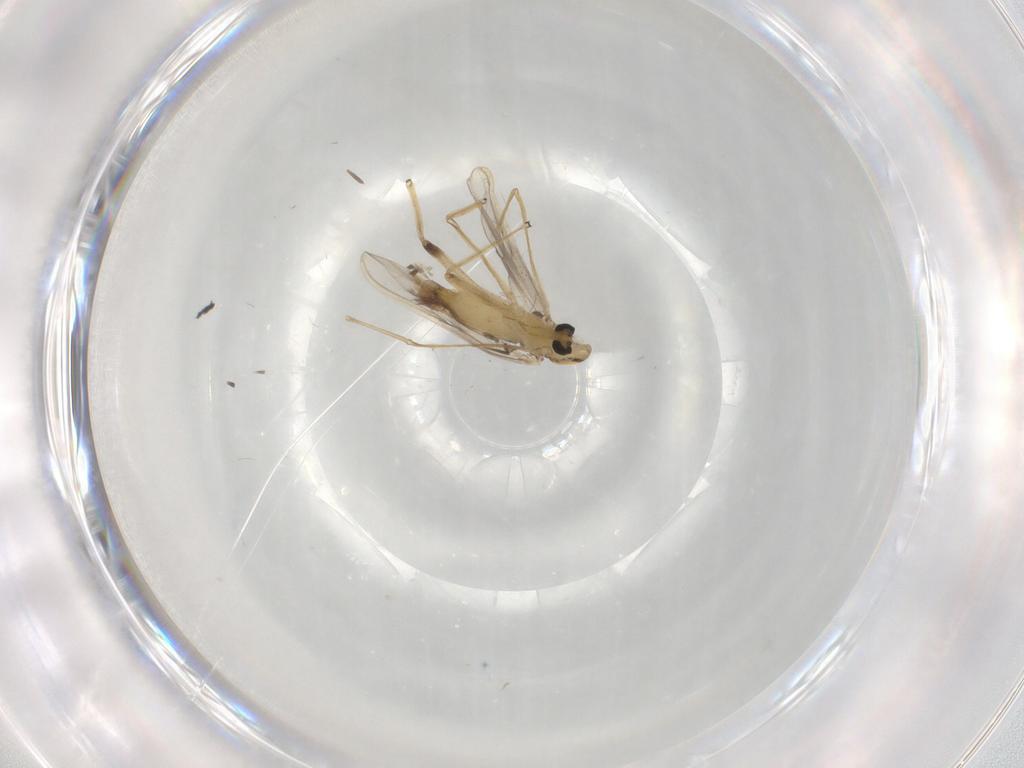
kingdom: Animalia
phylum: Arthropoda
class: Insecta
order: Diptera
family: Chironomidae
